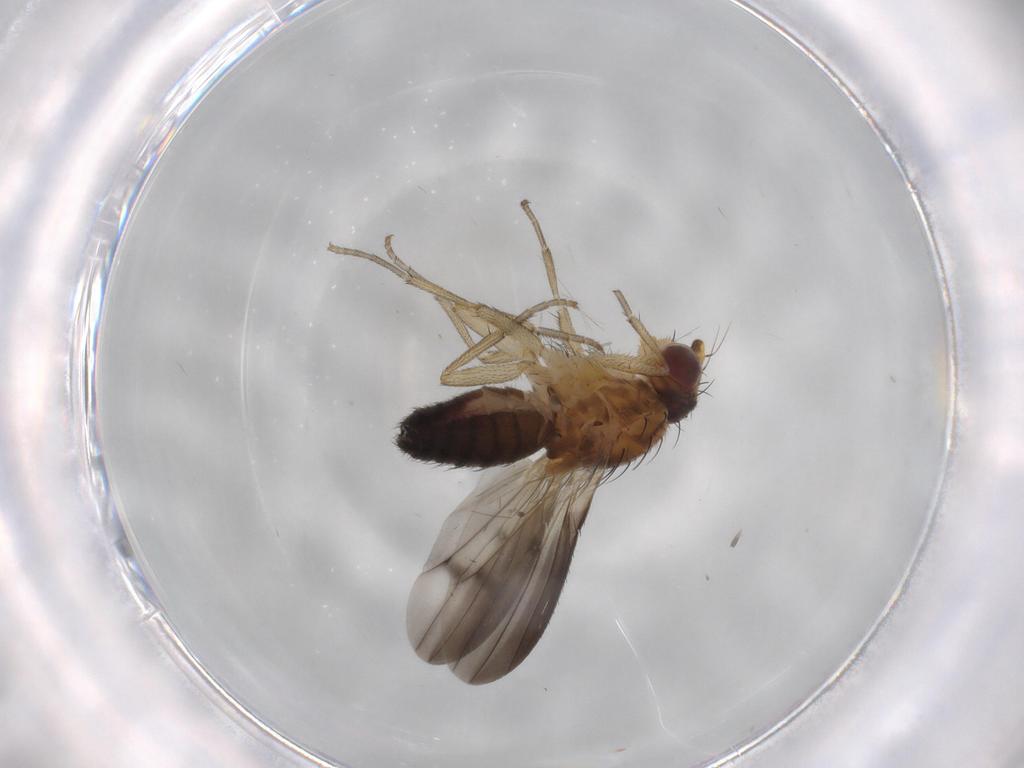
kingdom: Animalia
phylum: Arthropoda
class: Insecta
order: Diptera
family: Heleomyzidae
